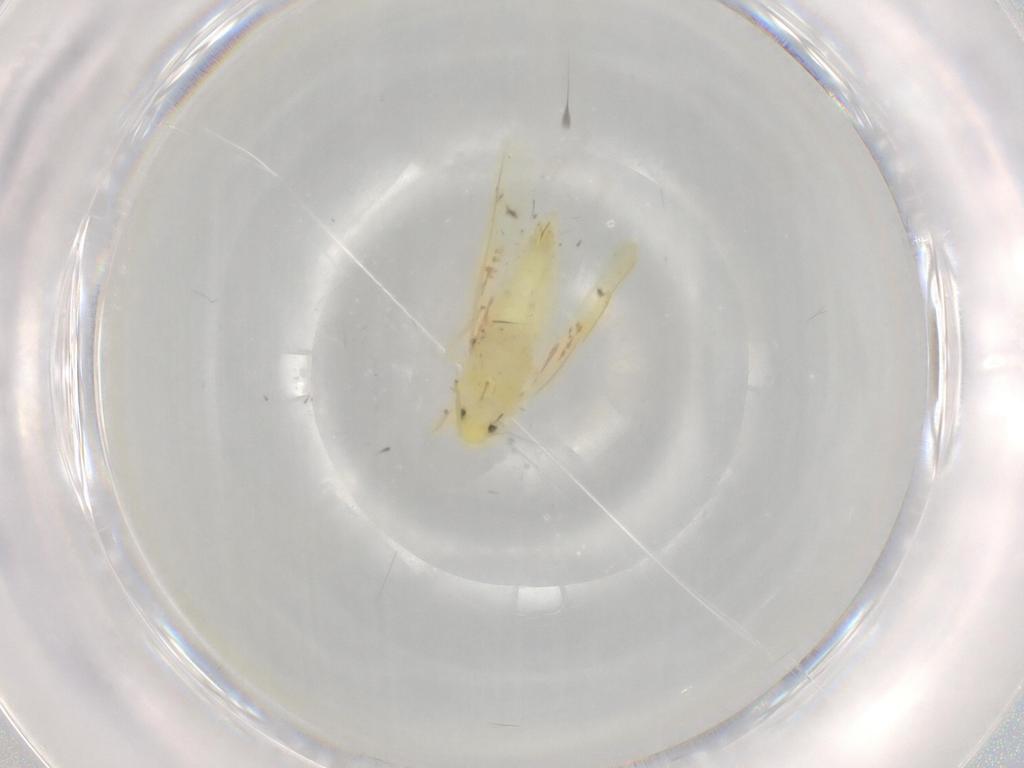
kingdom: Animalia
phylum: Arthropoda
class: Insecta
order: Hemiptera
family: Cicadellidae
